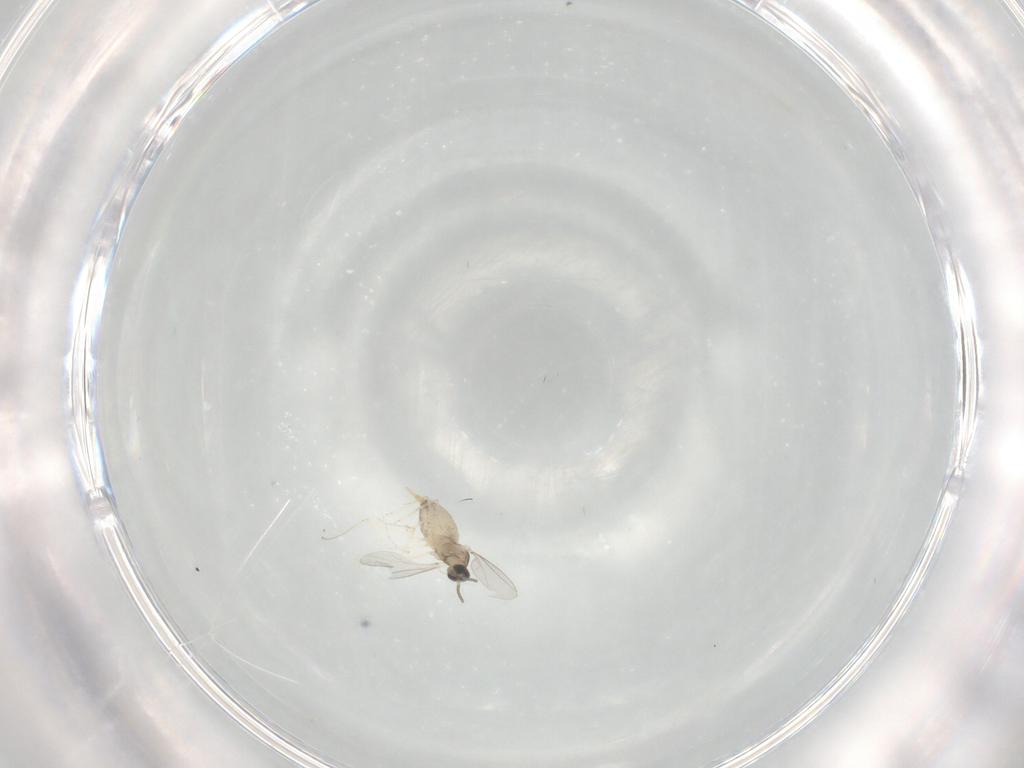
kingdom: Animalia
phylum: Arthropoda
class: Insecta
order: Diptera
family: Cecidomyiidae
